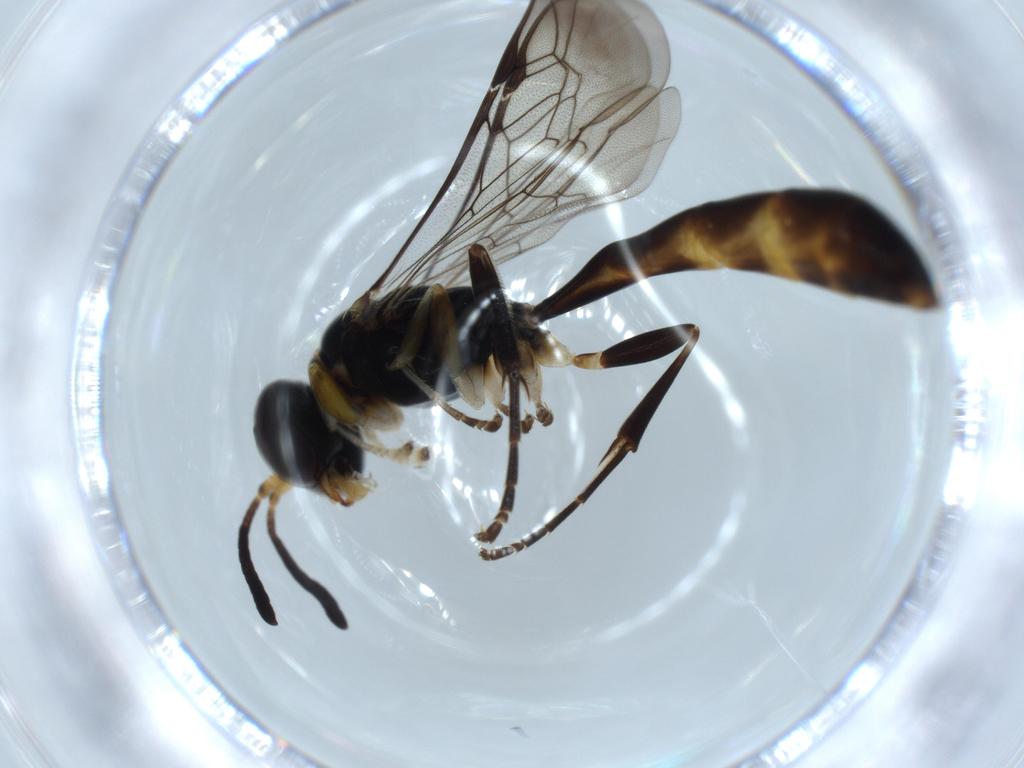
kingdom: Animalia
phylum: Arthropoda
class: Insecta
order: Hymenoptera
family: Crabronidae
